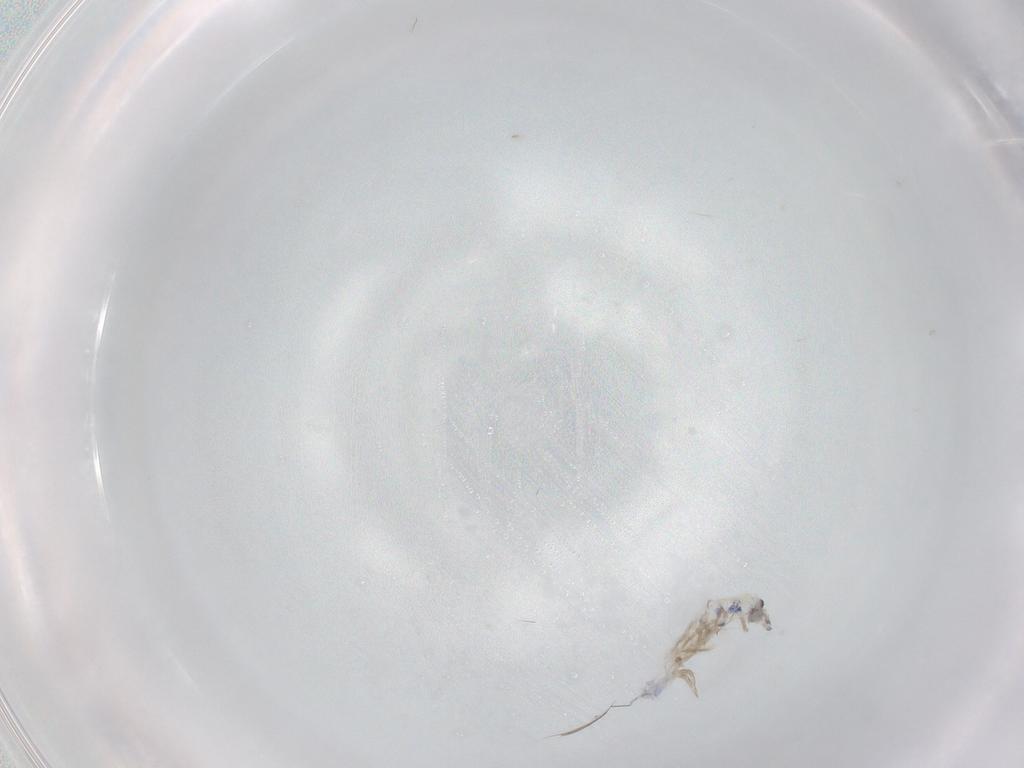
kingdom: Animalia
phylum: Arthropoda
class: Collembola
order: Entomobryomorpha
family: Entomobryidae
